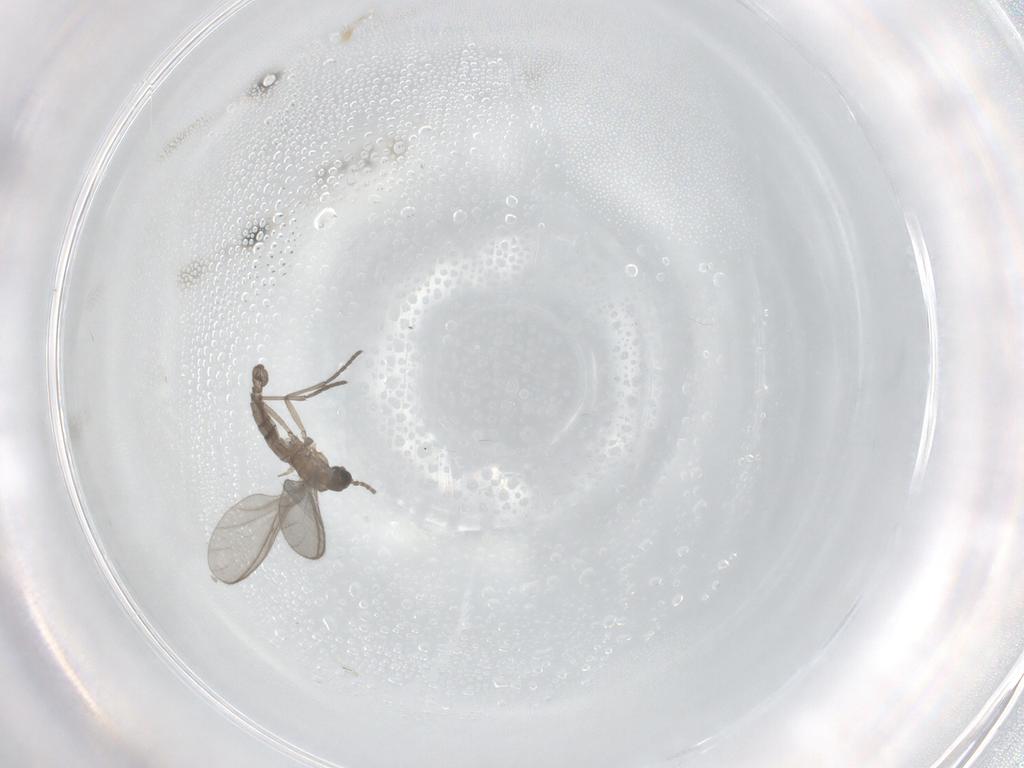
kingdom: Animalia
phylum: Arthropoda
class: Insecta
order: Diptera
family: Sciaridae
